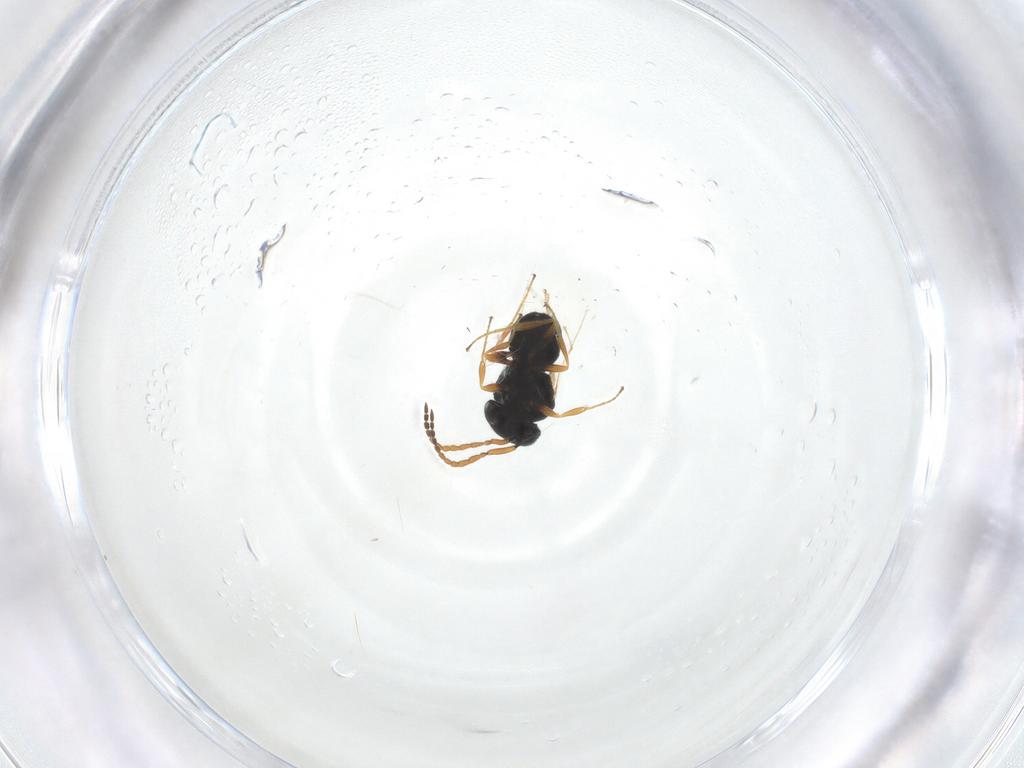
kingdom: Animalia
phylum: Arthropoda
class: Insecta
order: Hymenoptera
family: Scelionidae
